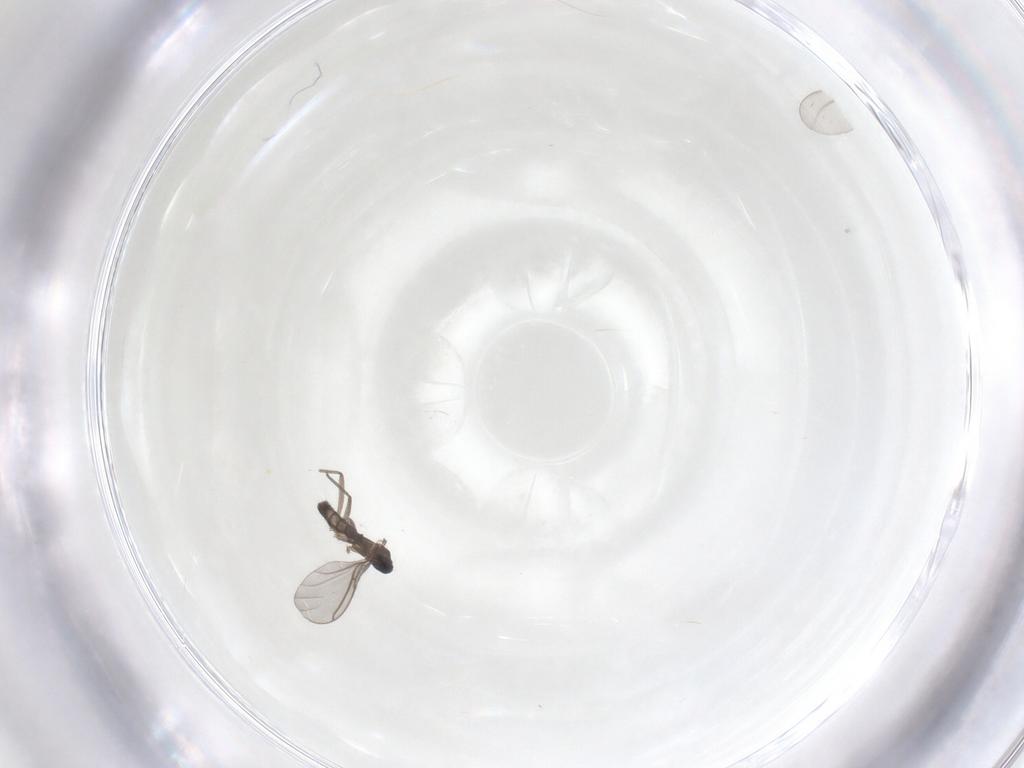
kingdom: Animalia
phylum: Arthropoda
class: Insecta
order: Diptera
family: Sciaridae
